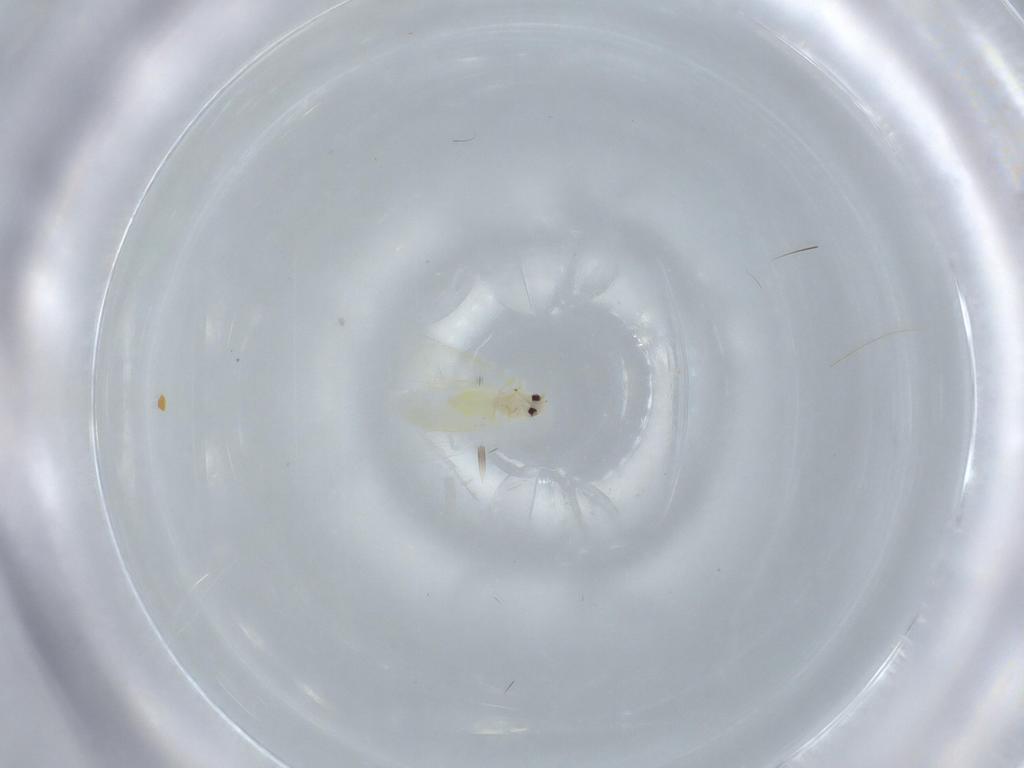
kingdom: Animalia
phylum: Arthropoda
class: Insecta
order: Hemiptera
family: Aleyrodidae
